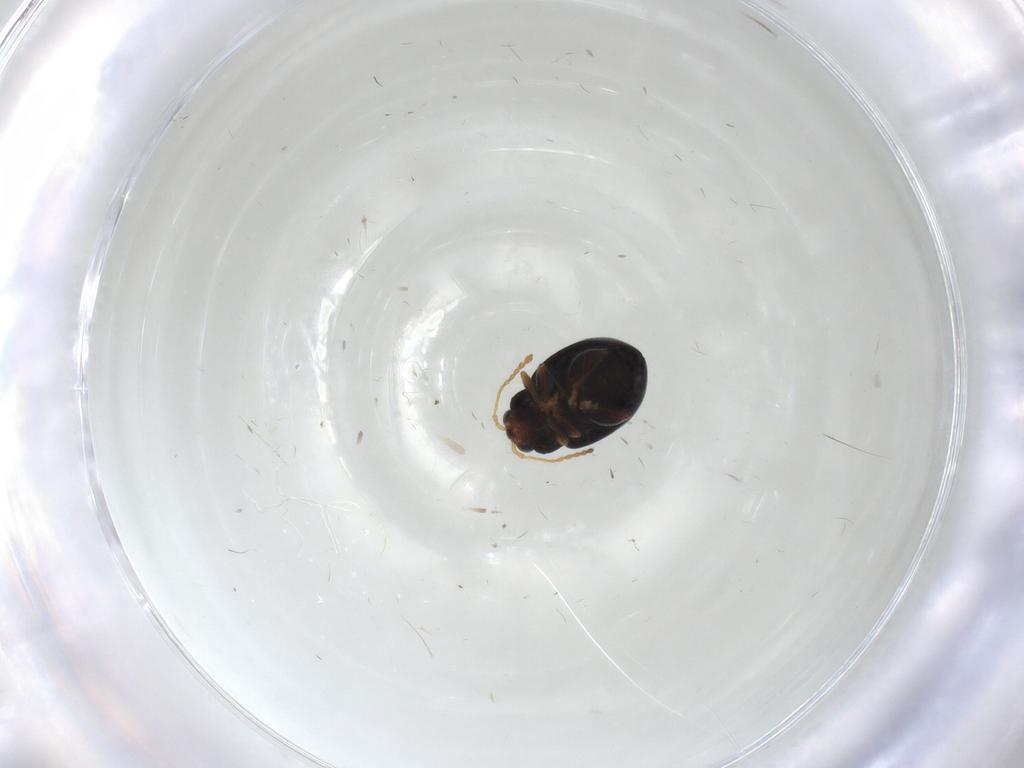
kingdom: Animalia
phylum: Arthropoda
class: Insecta
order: Coleoptera
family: Chrysomelidae
